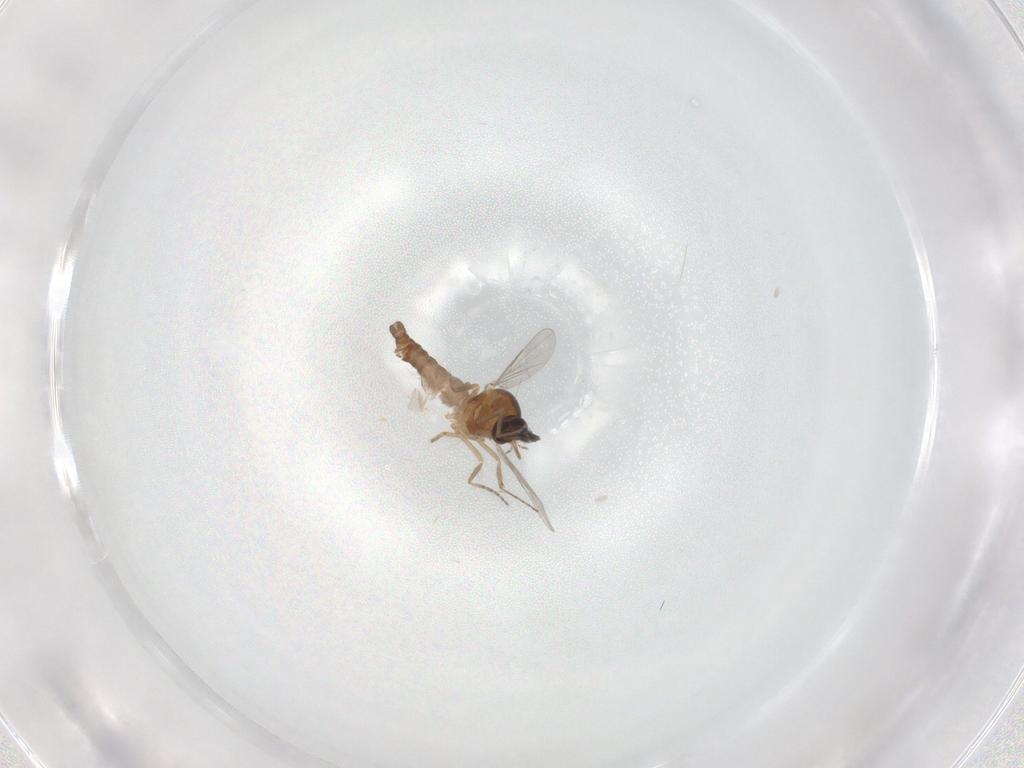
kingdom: Animalia
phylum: Arthropoda
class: Insecta
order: Diptera
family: Ceratopogonidae
